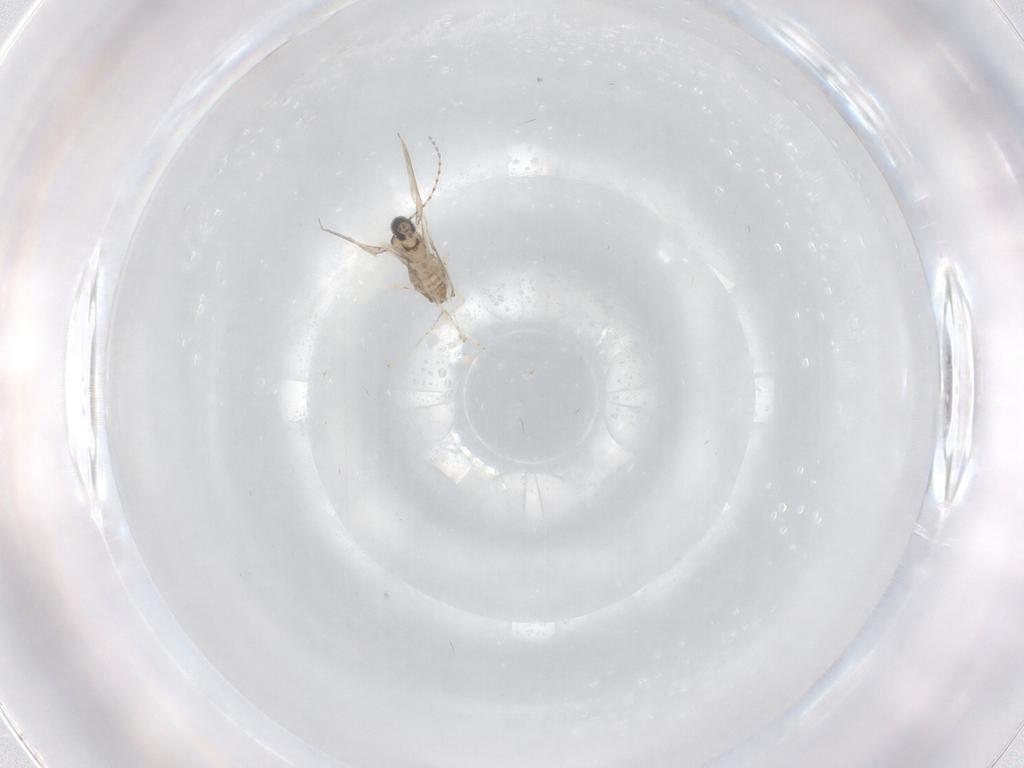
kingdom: Animalia
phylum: Arthropoda
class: Insecta
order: Diptera
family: Cecidomyiidae
